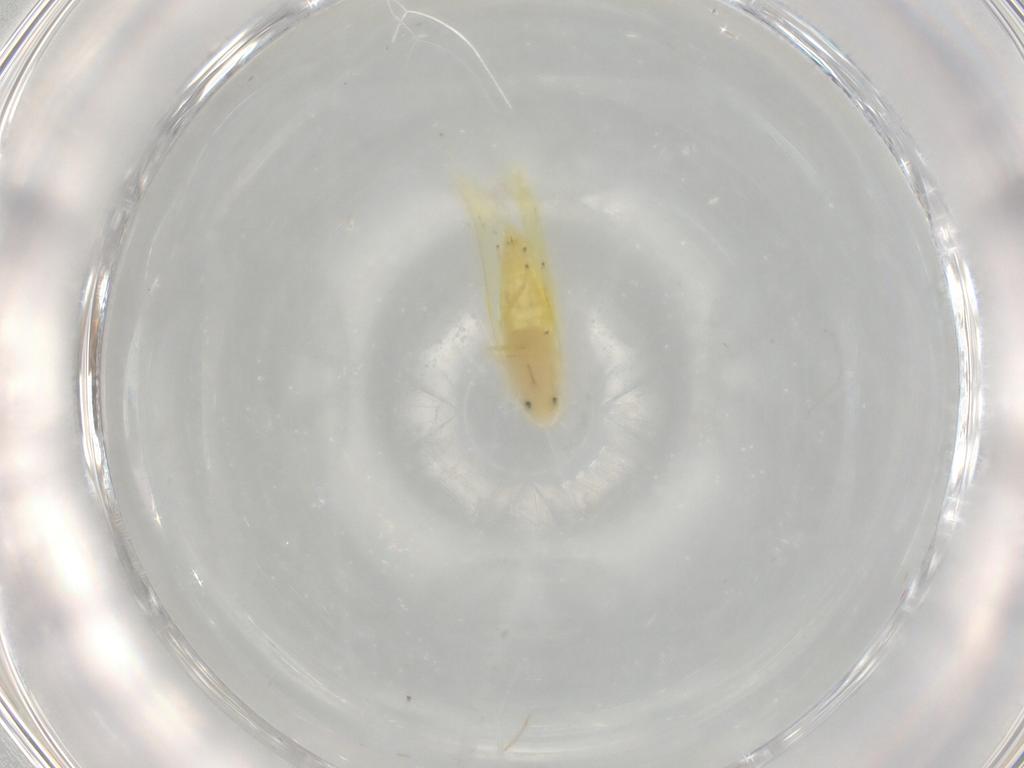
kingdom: Animalia
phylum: Arthropoda
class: Insecta
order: Hemiptera
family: Cicadellidae
